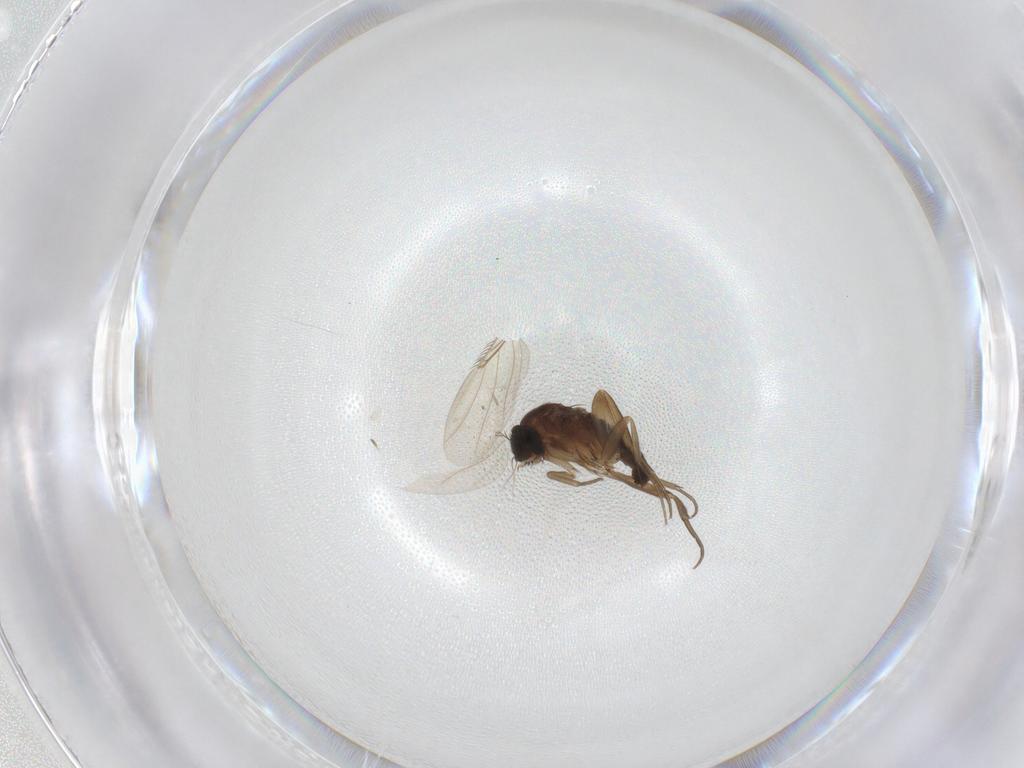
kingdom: Animalia
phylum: Arthropoda
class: Insecta
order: Diptera
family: Phoridae
